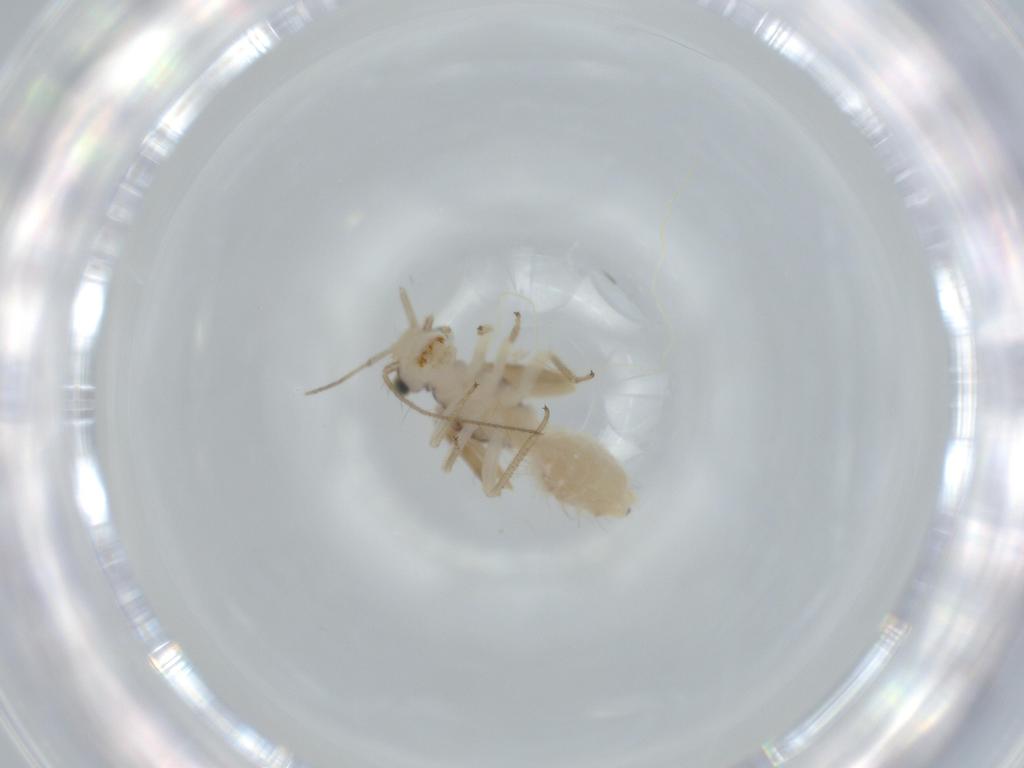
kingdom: Animalia
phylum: Arthropoda
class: Insecta
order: Psocodea
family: Pseudocaeciliidae
